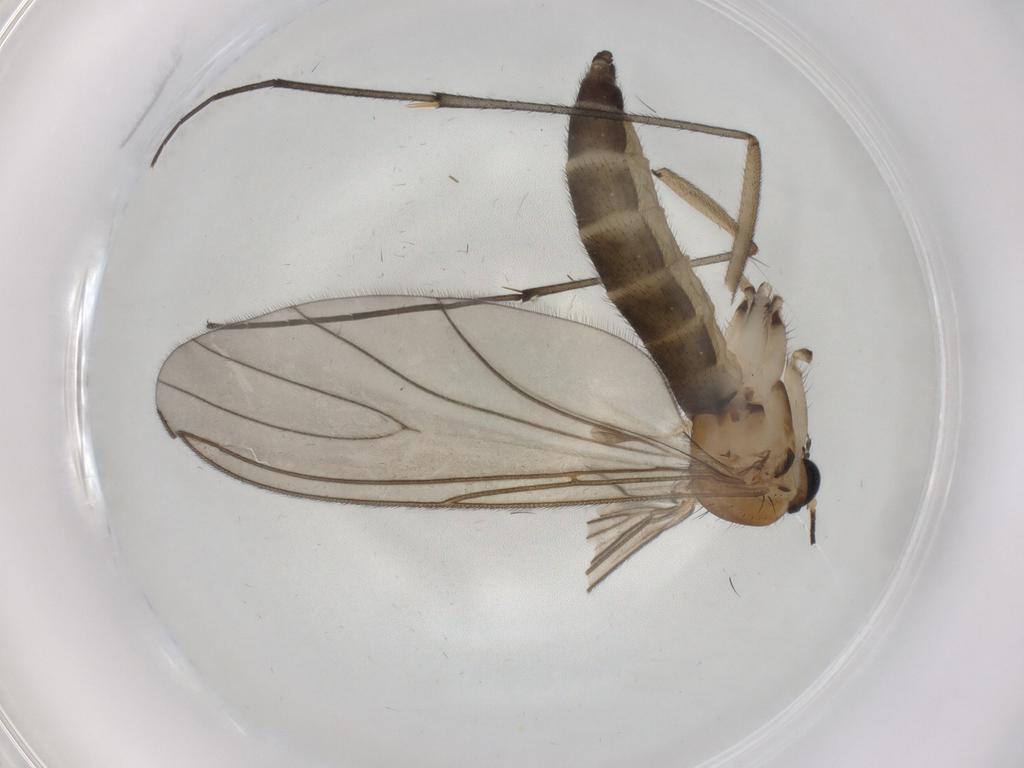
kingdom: Animalia
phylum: Arthropoda
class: Insecta
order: Diptera
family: Sciaridae
